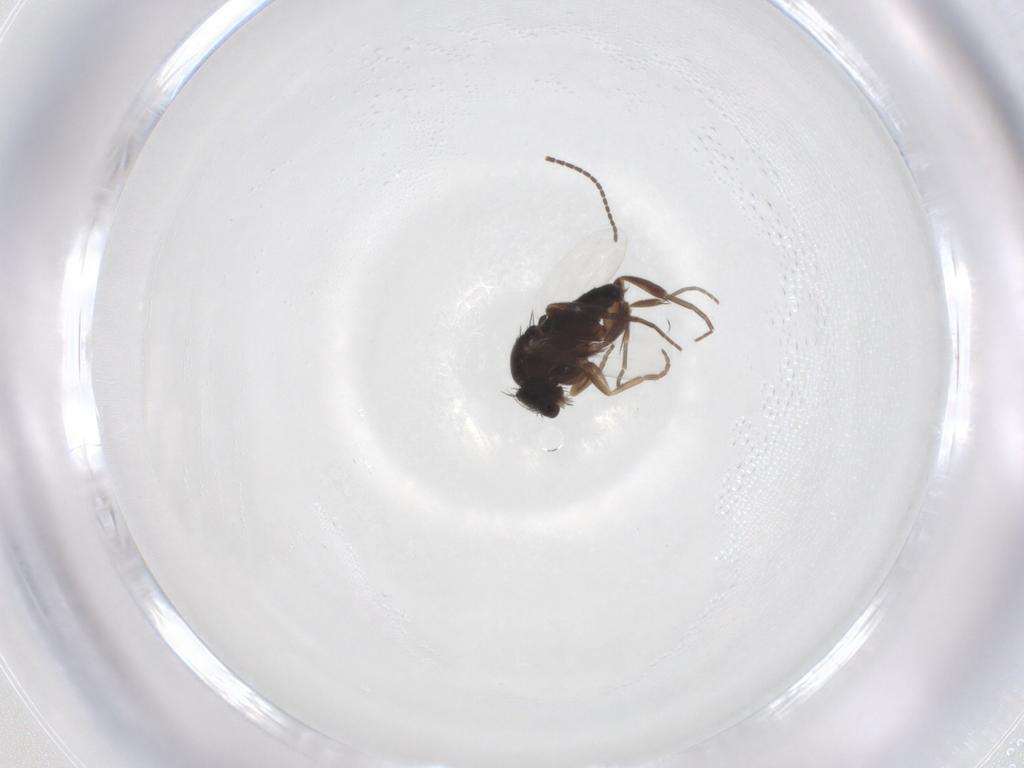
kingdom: Animalia
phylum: Arthropoda
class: Insecta
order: Diptera
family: Phoridae
